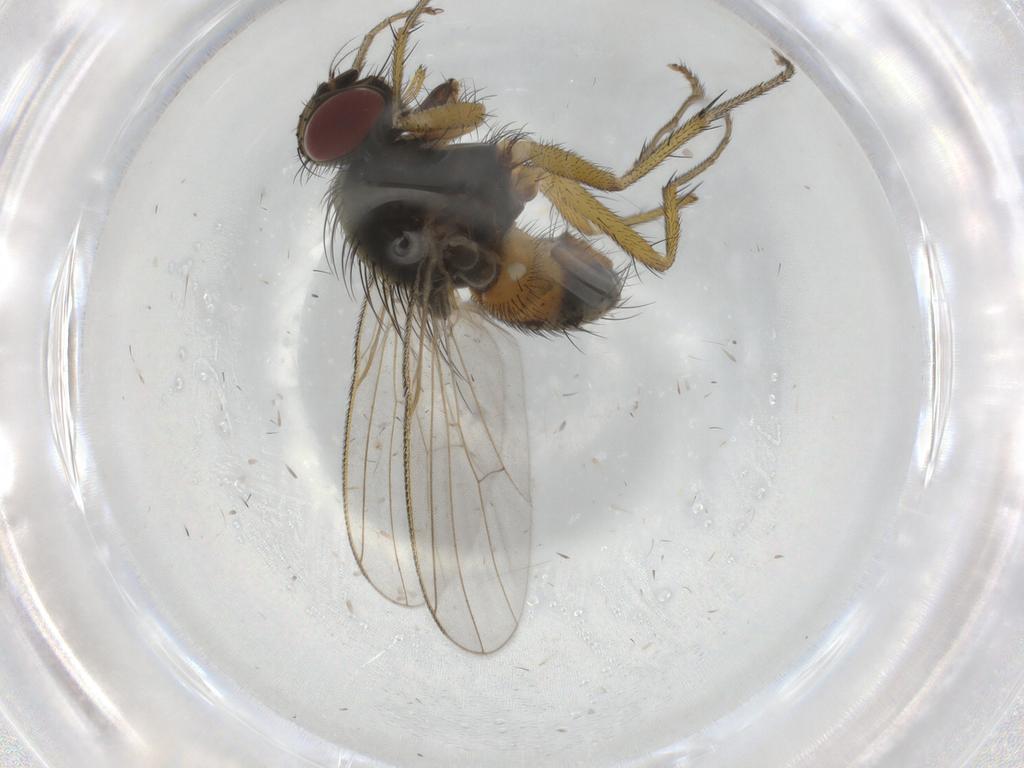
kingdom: Animalia
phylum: Arthropoda
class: Insecta
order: Diptera
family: Muscidae
